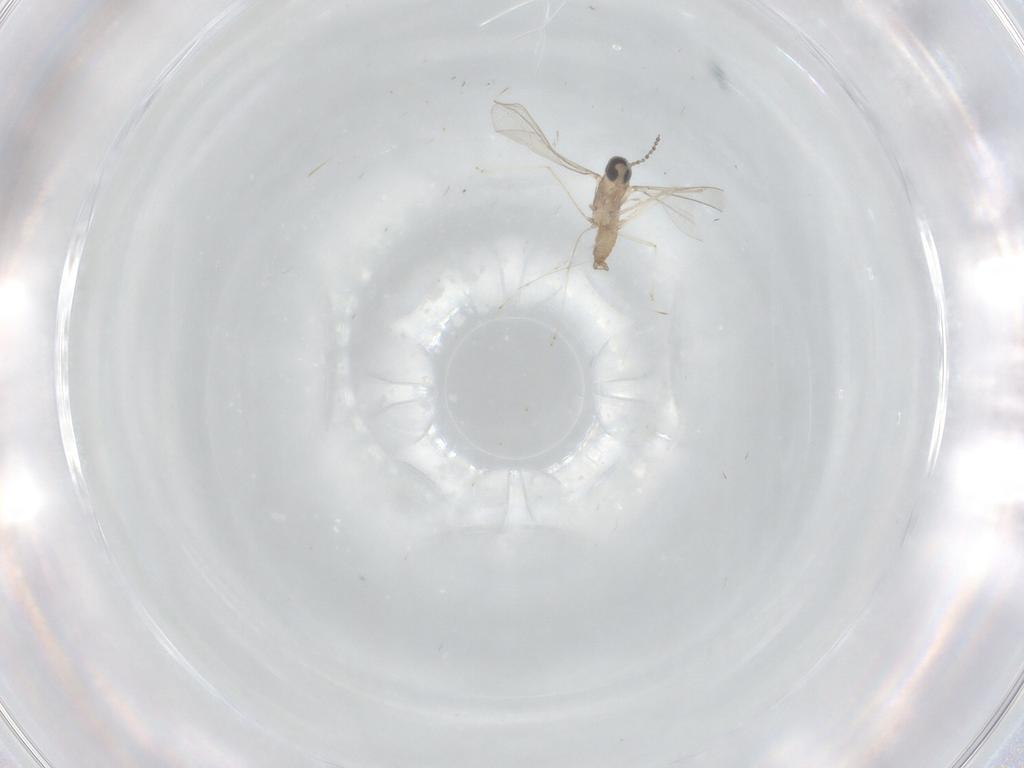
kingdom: Animalia
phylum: Arthropoda
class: Insecta
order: Diptera
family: Cecidomyiidae
